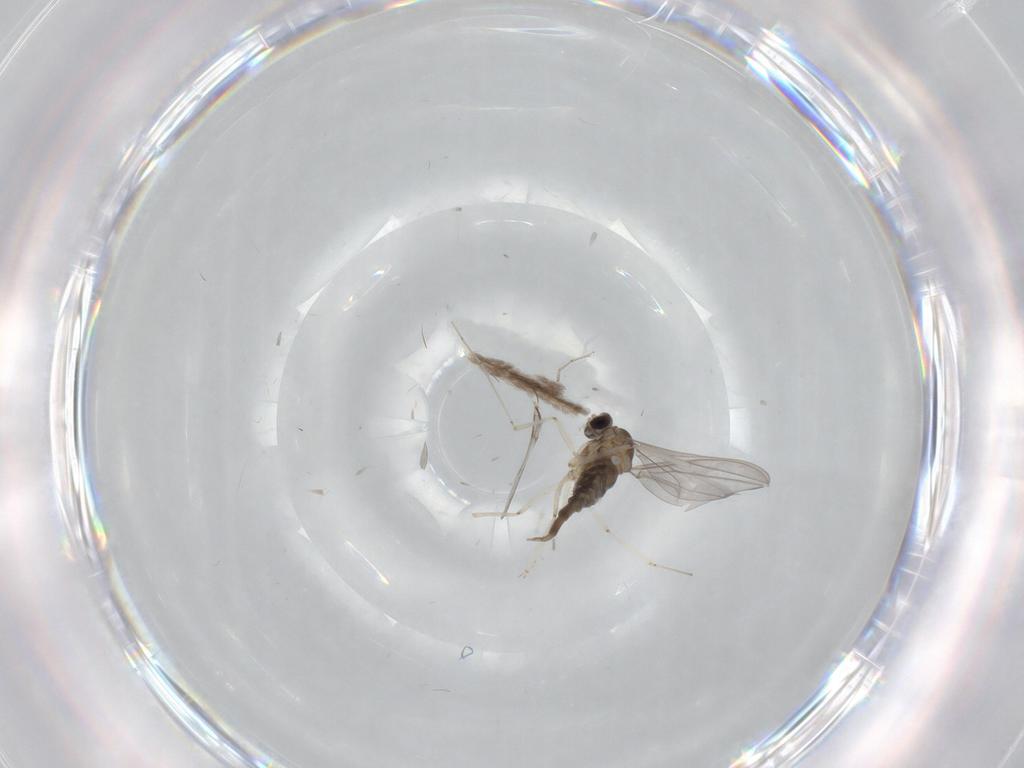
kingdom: Animalia
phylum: Arthropoda
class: Insecta
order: Diptera
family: Cecidomyiidae
